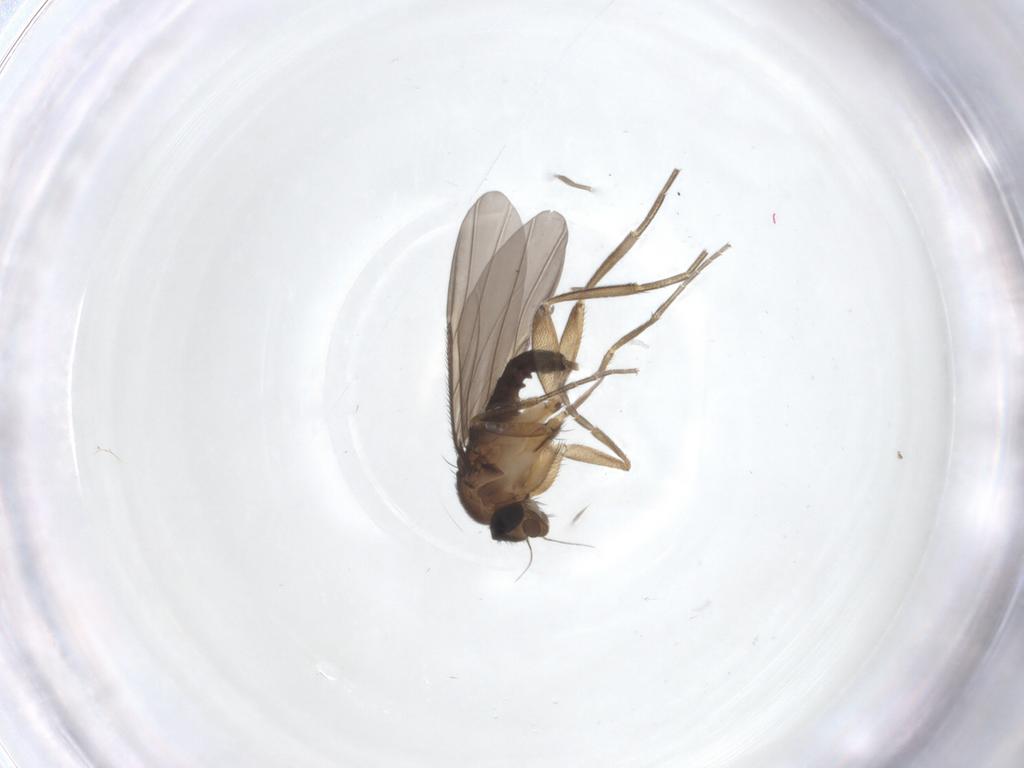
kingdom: Animalia
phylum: Arthropoda
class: Insecta
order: Diptera
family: Phoridae
